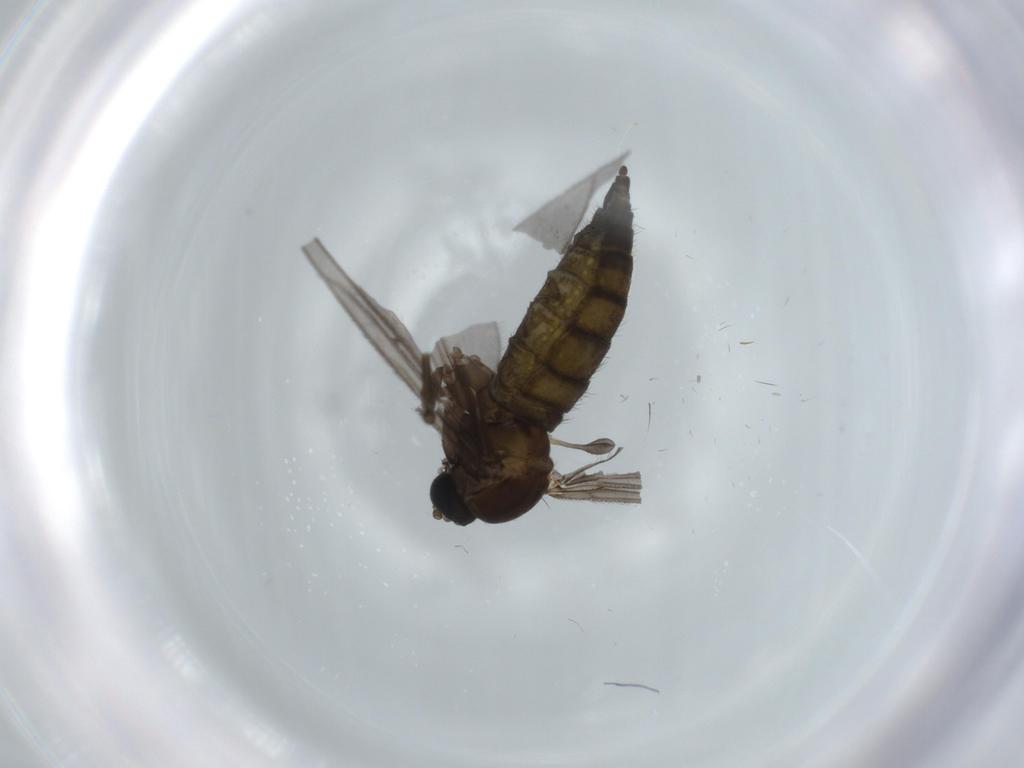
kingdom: Animalia
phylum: Arthropoda
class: Insecta
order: Diptera
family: Sciaridae
